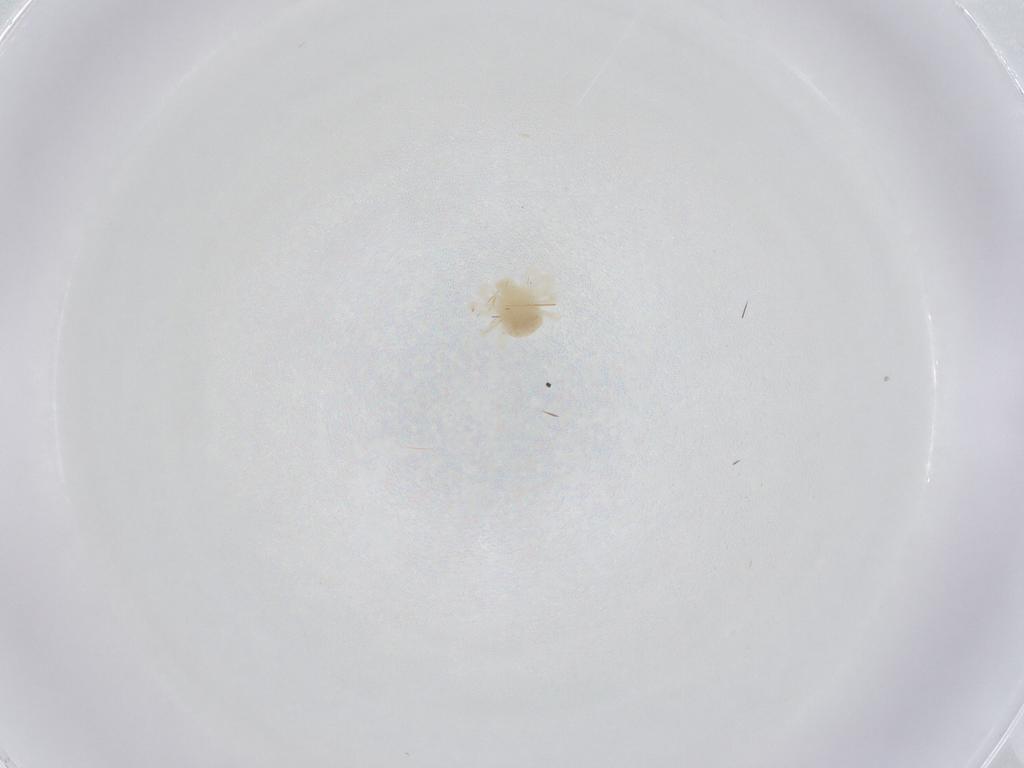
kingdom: Animalia
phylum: Arthropoda
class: Arachnida
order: Trombidiformes
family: Anystidae
